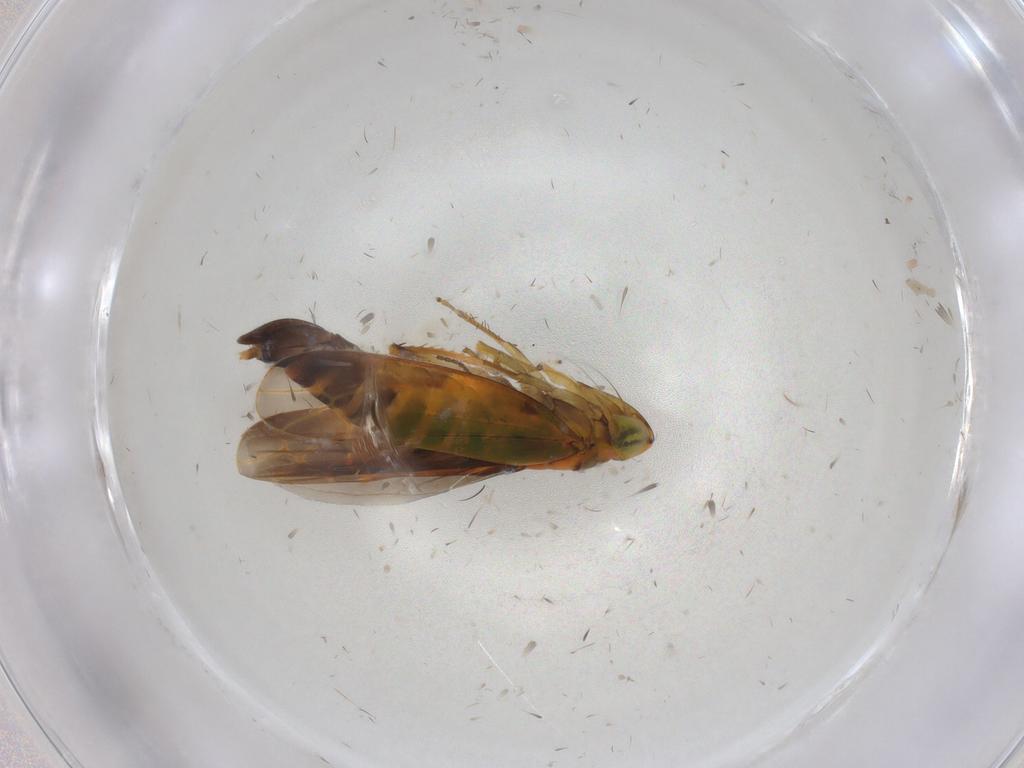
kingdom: Animalia
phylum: Arthropoda
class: Insecta
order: Hemiptera
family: Cicadellidae
